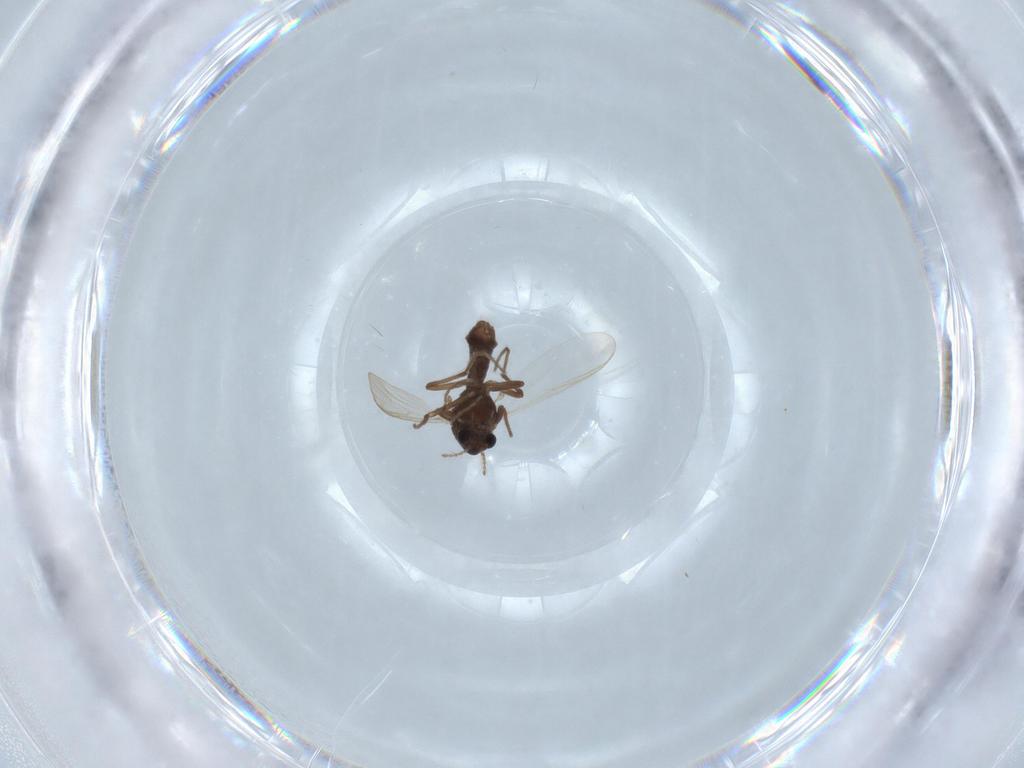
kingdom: Animalia
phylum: Arthropoda
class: Insecta
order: Diptera
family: Chironomidae
